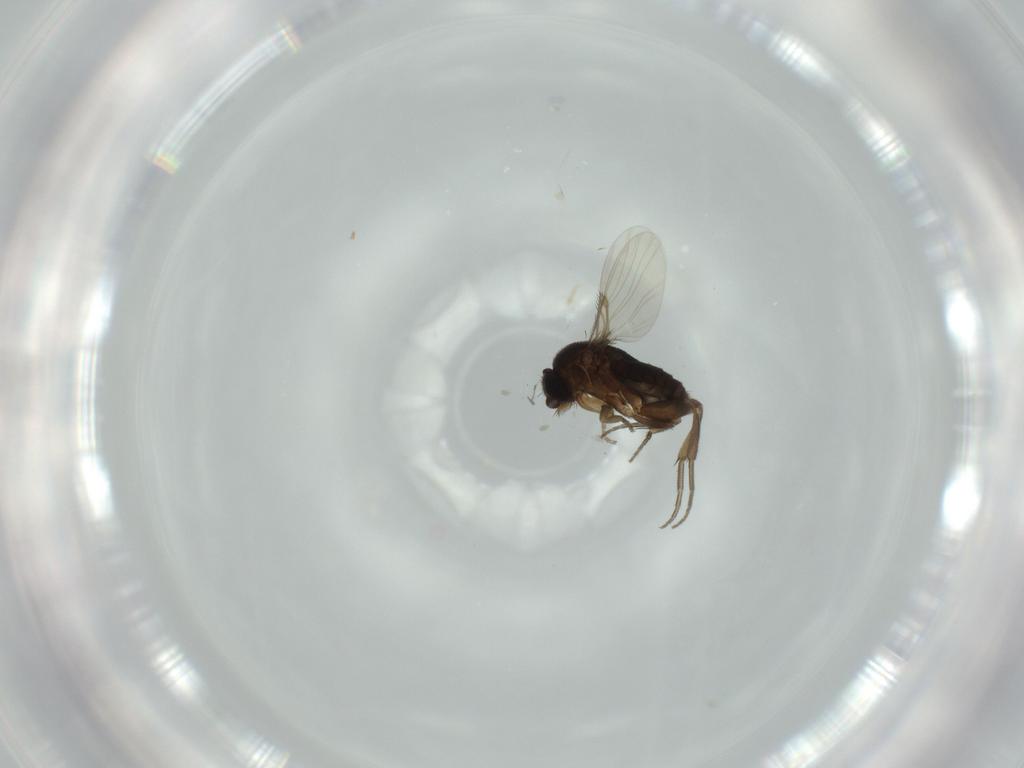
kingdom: Animalia
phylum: Arthropoda
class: Insecta
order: Diptera
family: Phoridae
